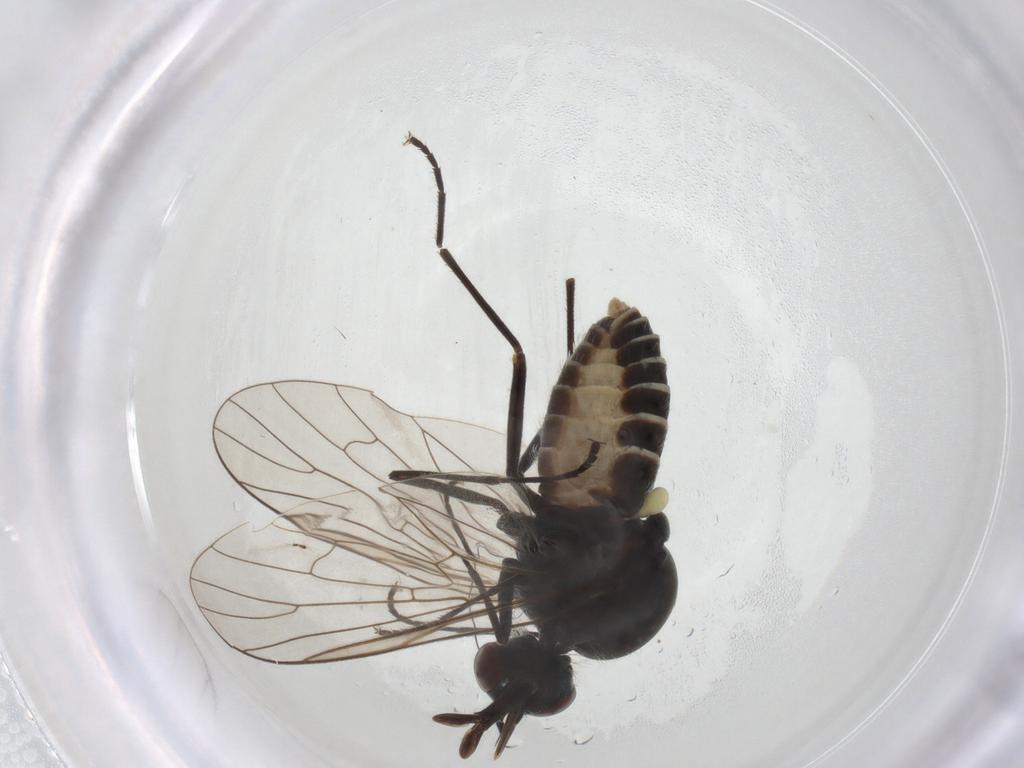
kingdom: Animalia
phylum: Arthropoda
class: Insecta
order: Diptera
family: Bombyliidae
